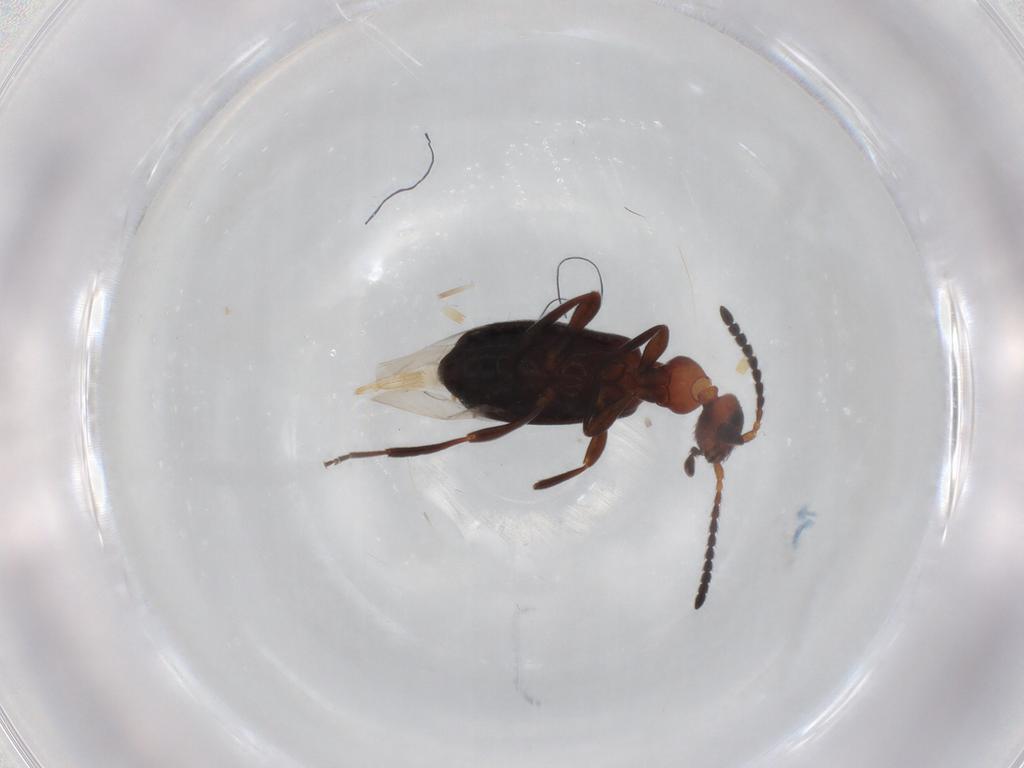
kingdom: Animalia
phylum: Arthropoda
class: Insecta
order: Coleoptera
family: Anthicidae
